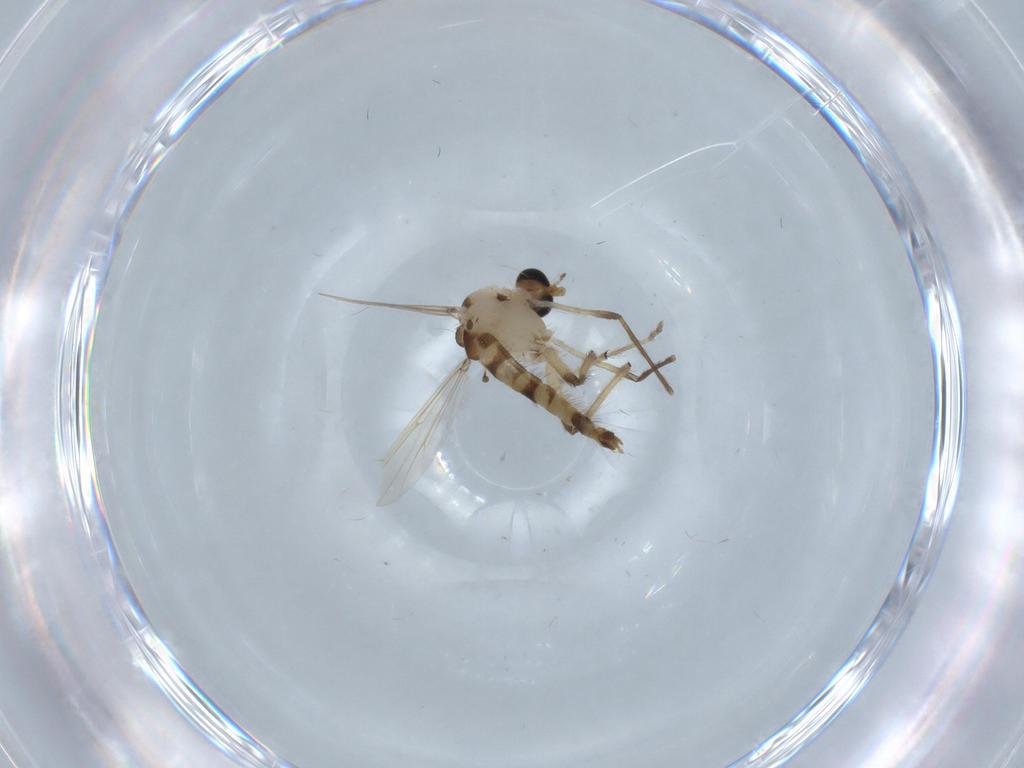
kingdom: Animalia
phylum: Arthropoda
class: Insecta
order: Diptera
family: Chironomidae
